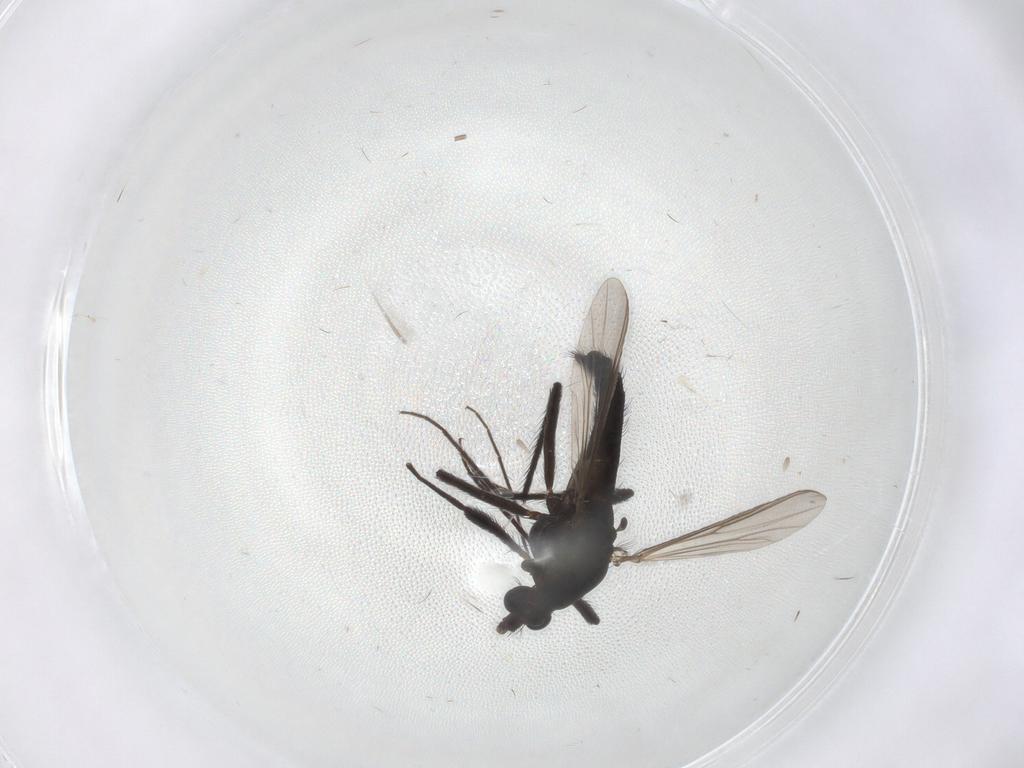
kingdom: Animalia
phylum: Arthropoda
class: Insecta
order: Diptera
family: Chironomidae
